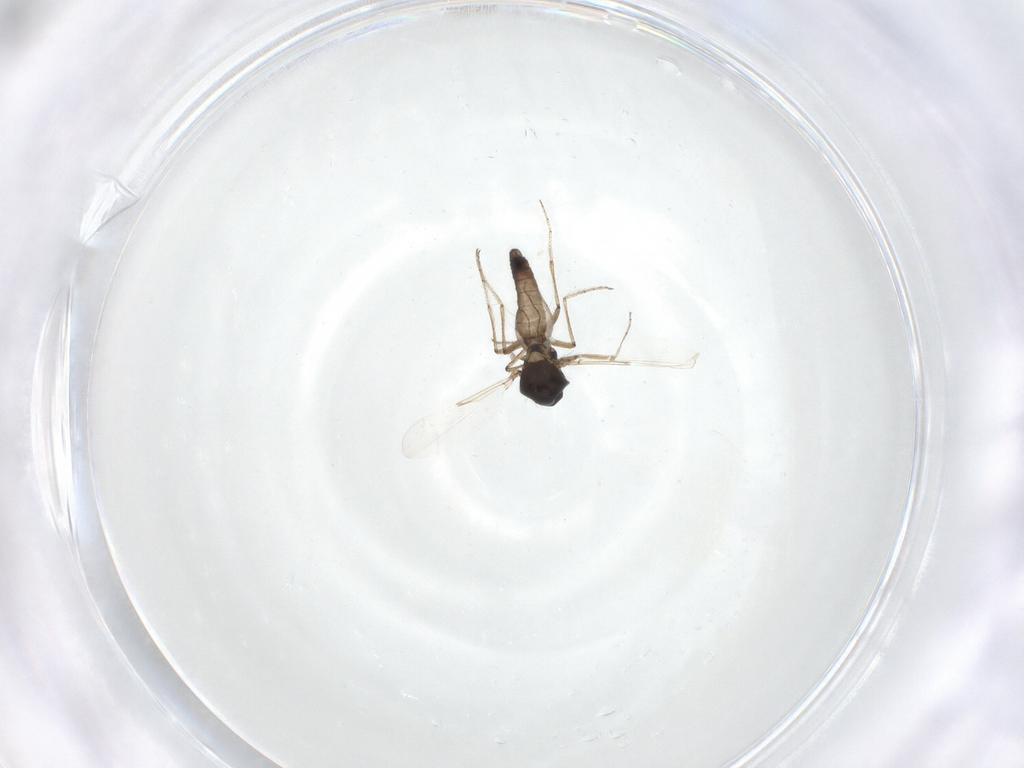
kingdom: Animalia
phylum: Arthropoda
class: Insecta
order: Diptera
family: Ceratopogonidae
